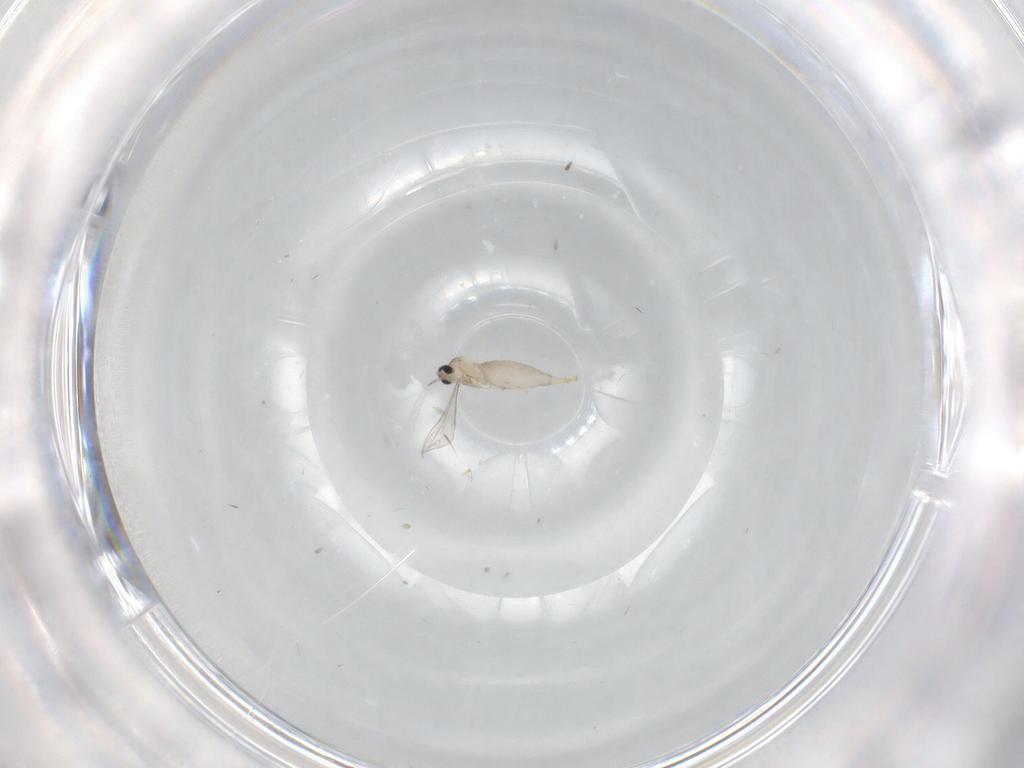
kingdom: Animalia
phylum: Arthropoda
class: Insecta
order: Diptera
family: Cecidomyiidae
